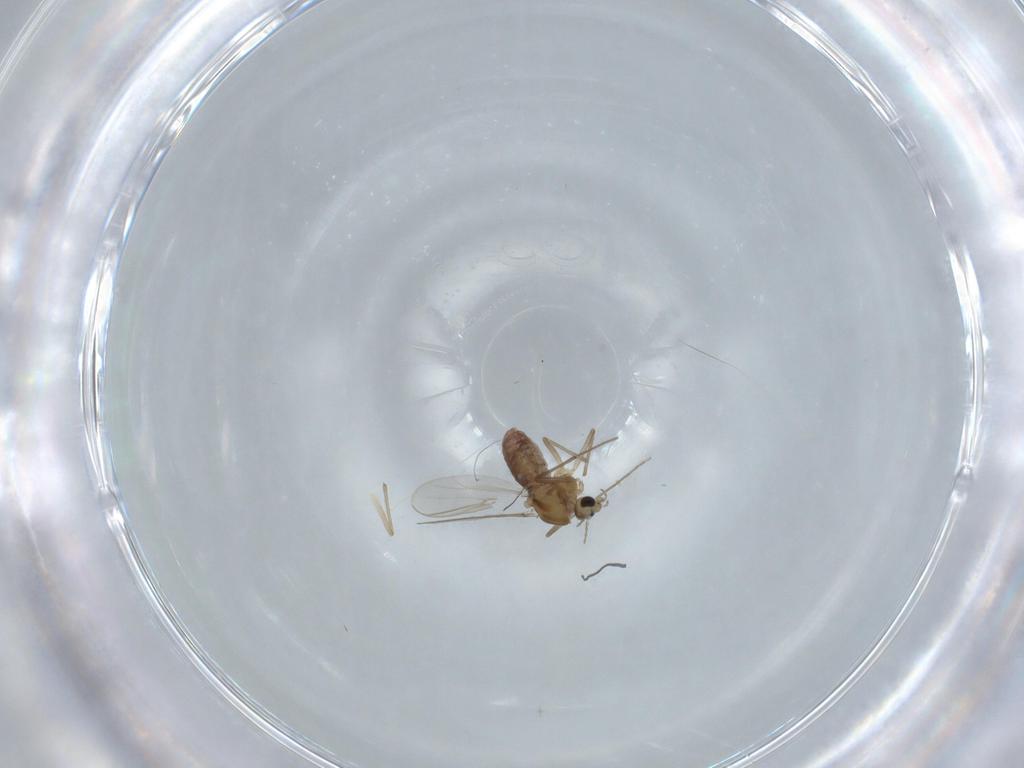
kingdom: Animalia
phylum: Arthropoda
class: Insecta
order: Diptera
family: Chironomidae
